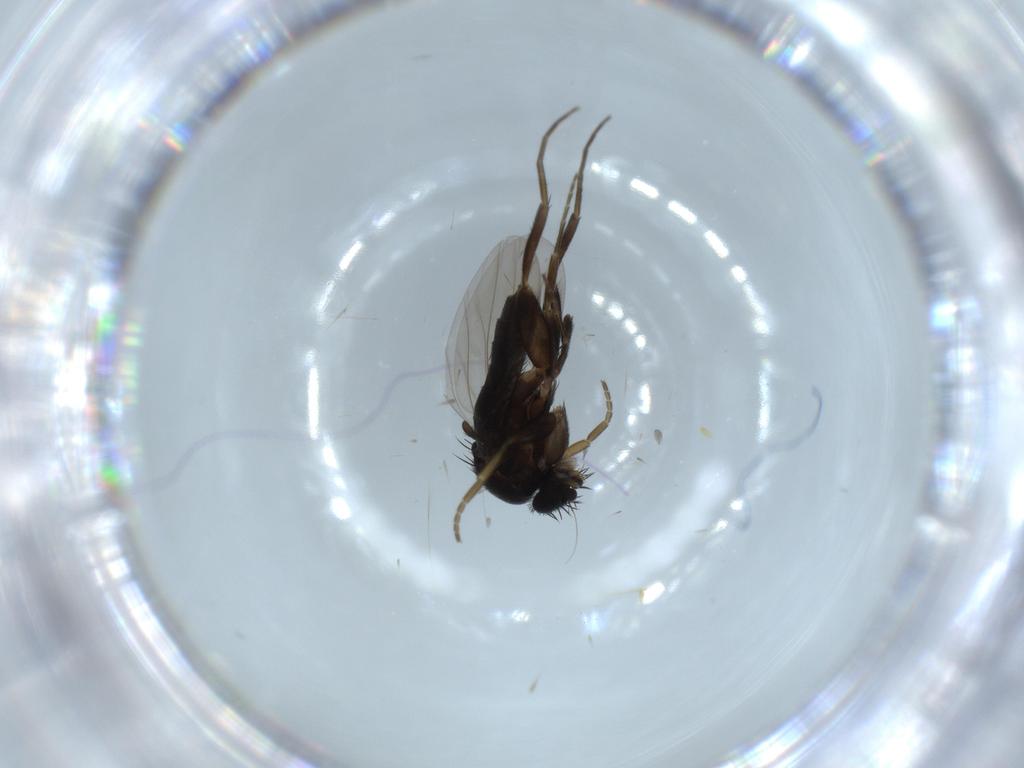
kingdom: Animalia
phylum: Arthropoda
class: Insecta
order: Diptera
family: Phoridae
